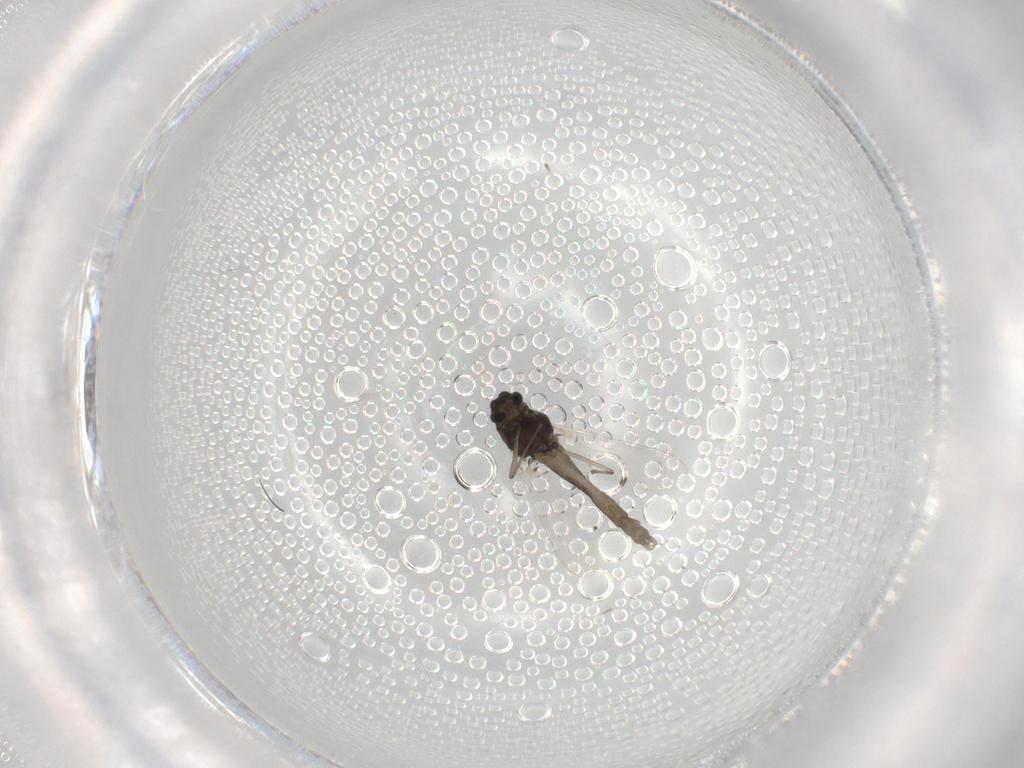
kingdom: Animalia
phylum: Arthropoda
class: Insecta
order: Diptera
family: Chironomidae
